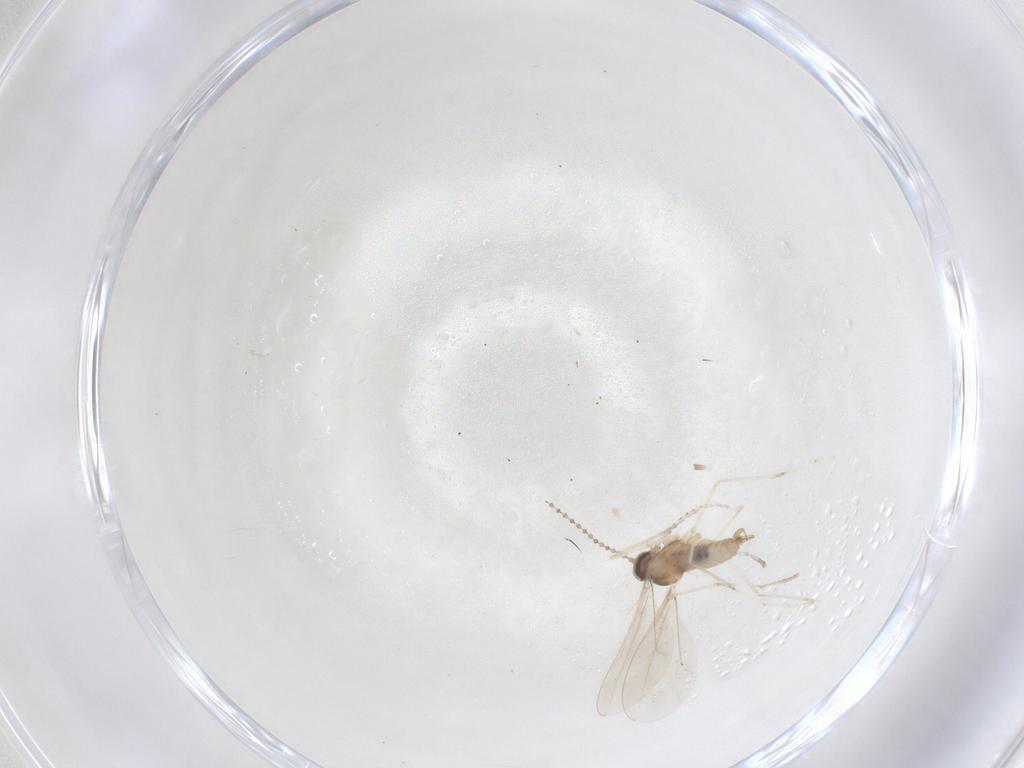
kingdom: Animalia
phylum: Arthropoda
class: Insecta
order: Diptera
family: Cecidomyiidae
